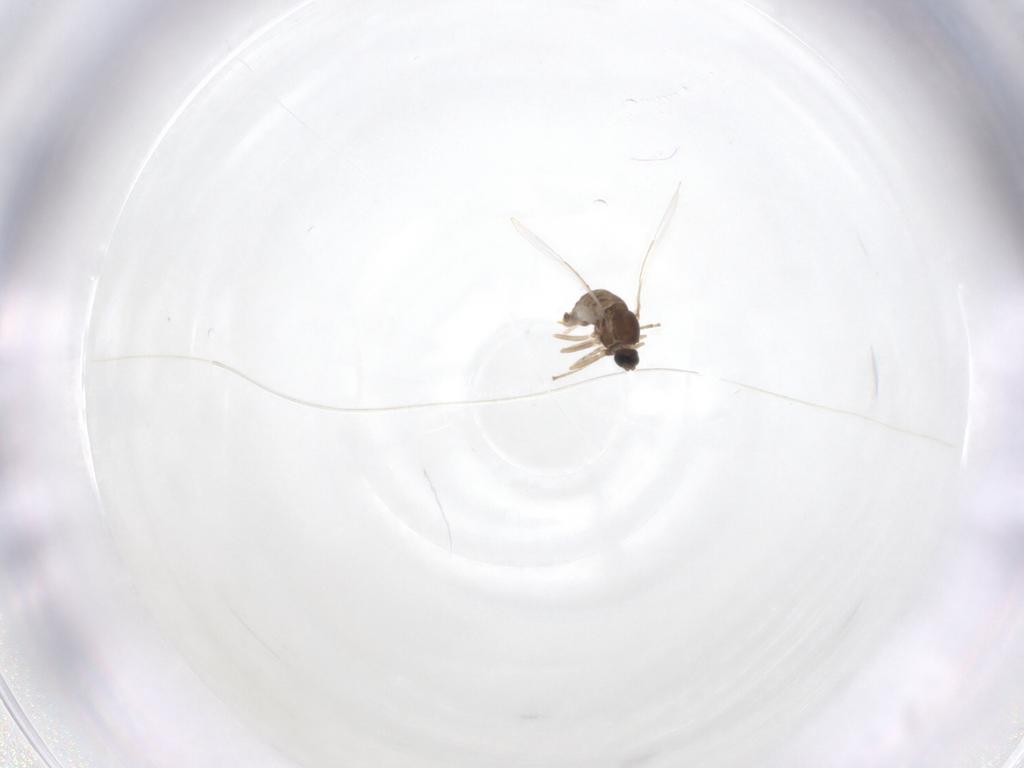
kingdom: Animalia
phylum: Arthropoda
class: Insecta
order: Diptera
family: Cecidomyiidae
